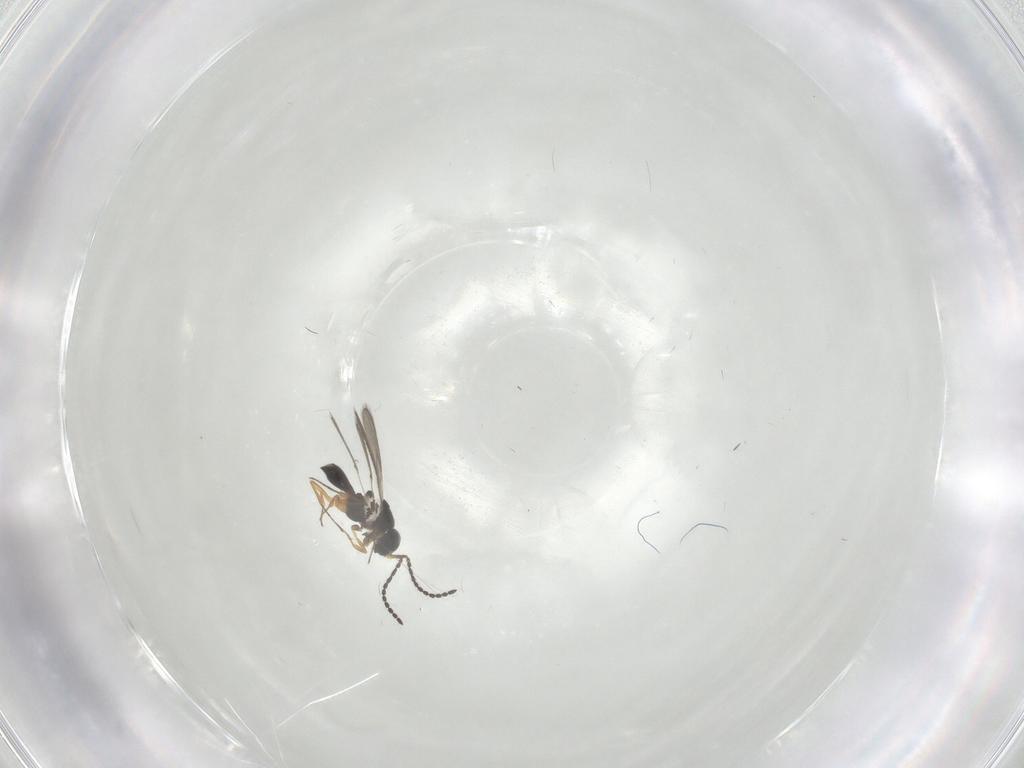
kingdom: Animalia
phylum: Arthropoda
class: Insecta
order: Hymenoptera
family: Scelionidae
